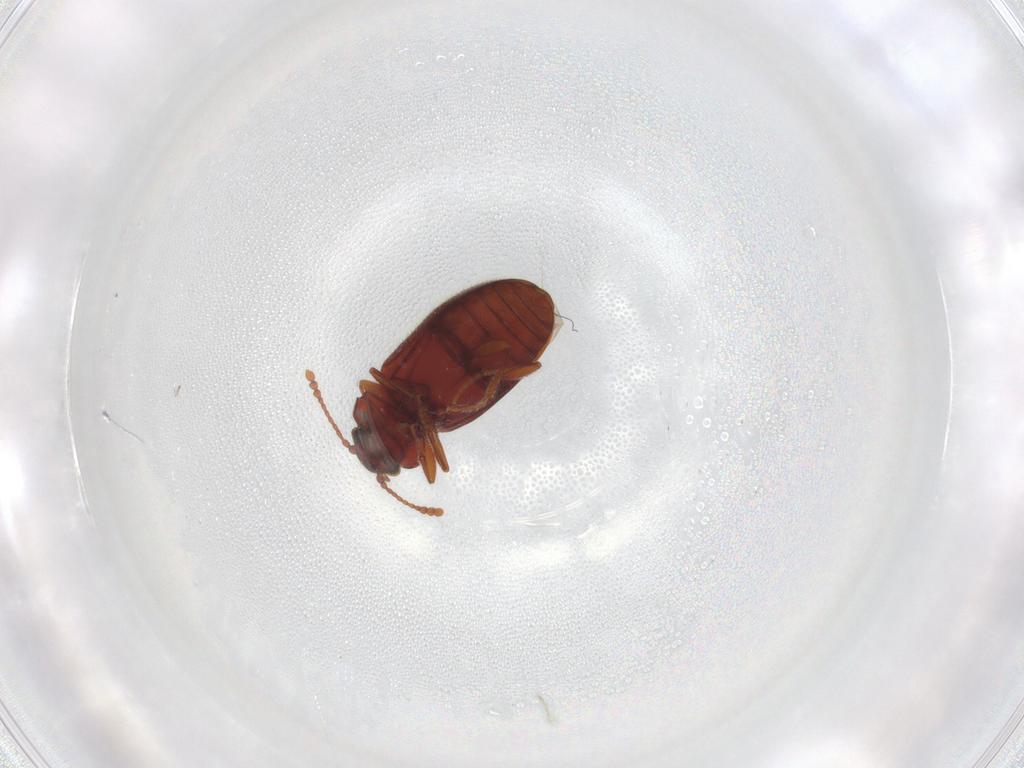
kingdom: Animalia
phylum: Arthropoda
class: Insecta
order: Coleoptera
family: Cryptophagidae
